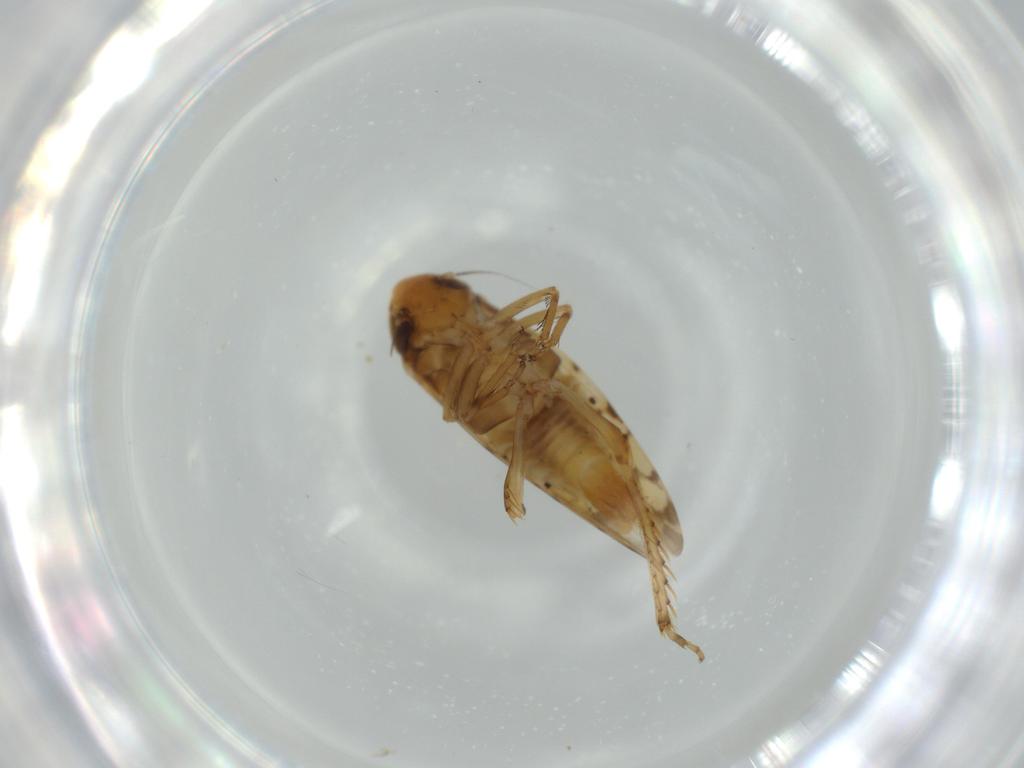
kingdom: Animalia
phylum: Arthropoda
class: Insecta
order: Hemiptera
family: Cicadellidae
